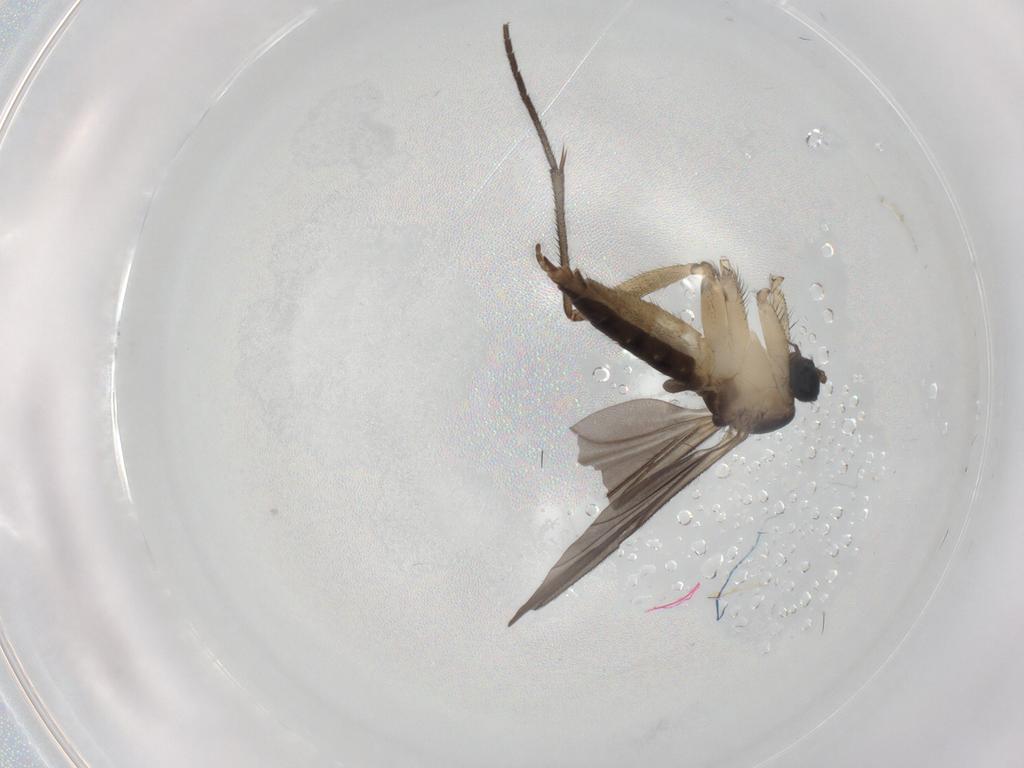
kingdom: Animalia
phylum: Arthropoda
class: Insecta
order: Diptera
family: Sciaridae
